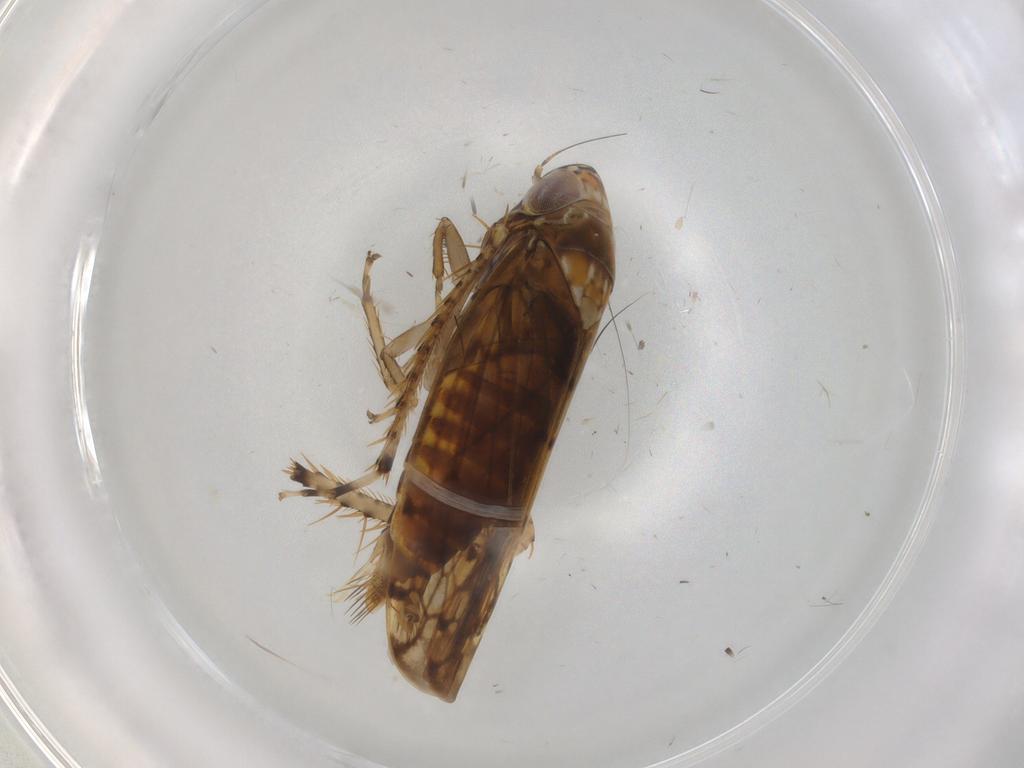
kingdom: Animalia
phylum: Arthropoda
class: Insecta
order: Hemiptera
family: Cicadellidae
